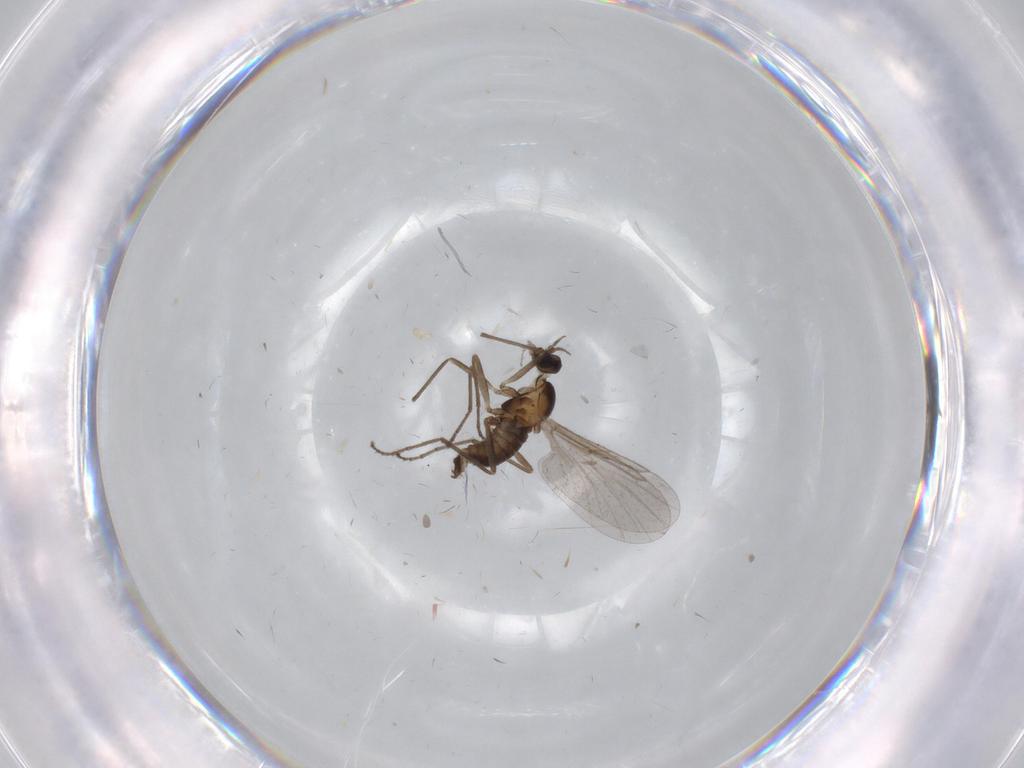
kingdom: Animalia
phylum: Arthropoda
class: Insecta
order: Diptera
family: Cecidomyiidae
